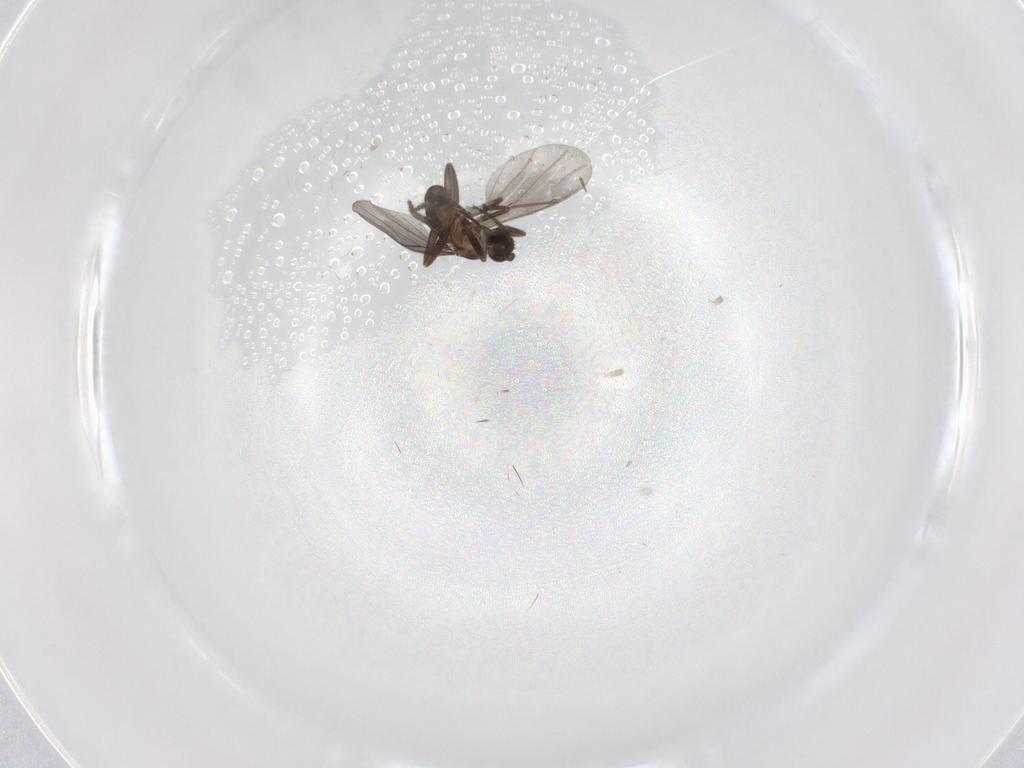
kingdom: Animalia
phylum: Arthropoda
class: Insecta
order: Diptera
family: Phoridae
